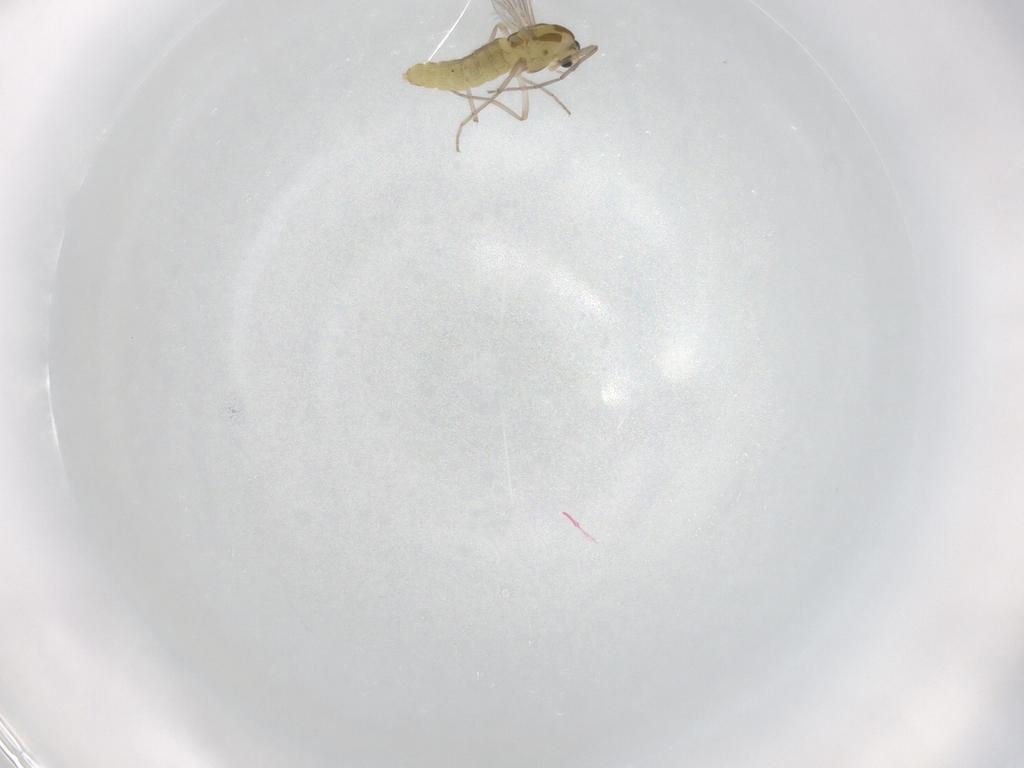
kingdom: Animalia
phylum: Arthropoda
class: Insecta
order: Diptera
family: Chironomidae
